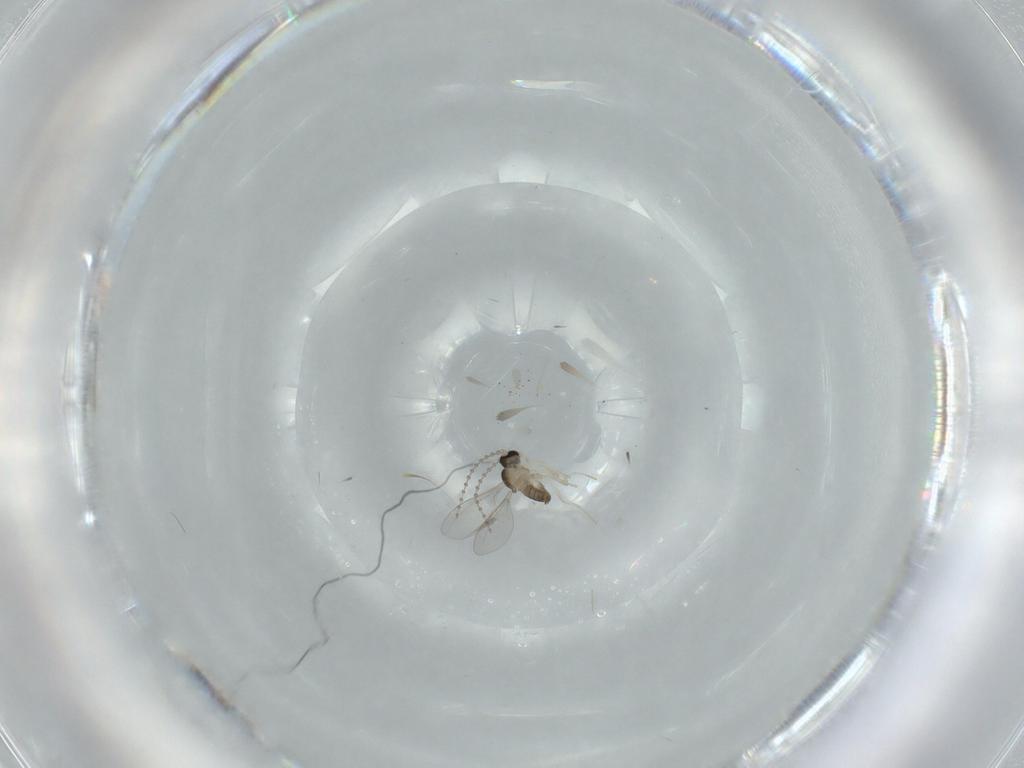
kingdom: Animalia
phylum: Arthropoda
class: Insecta
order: Diptera
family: Cecidomyiidae
